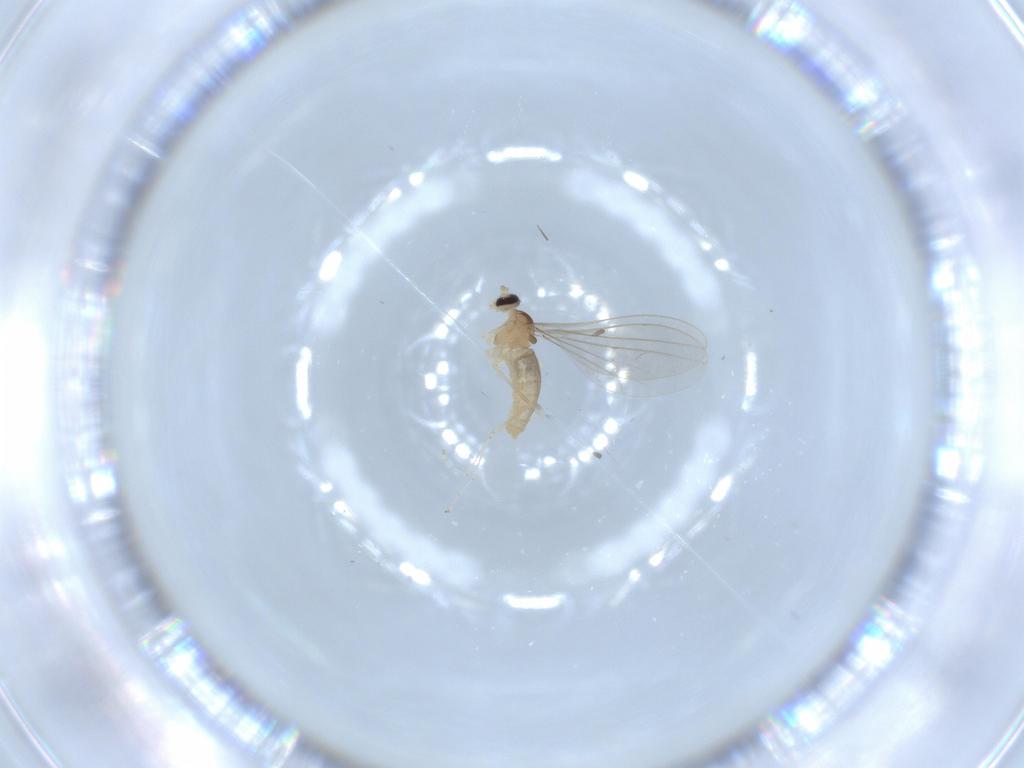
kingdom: Animalia
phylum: Arthropoda
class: Insecta
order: Diptera
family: Cecidomyiidae
